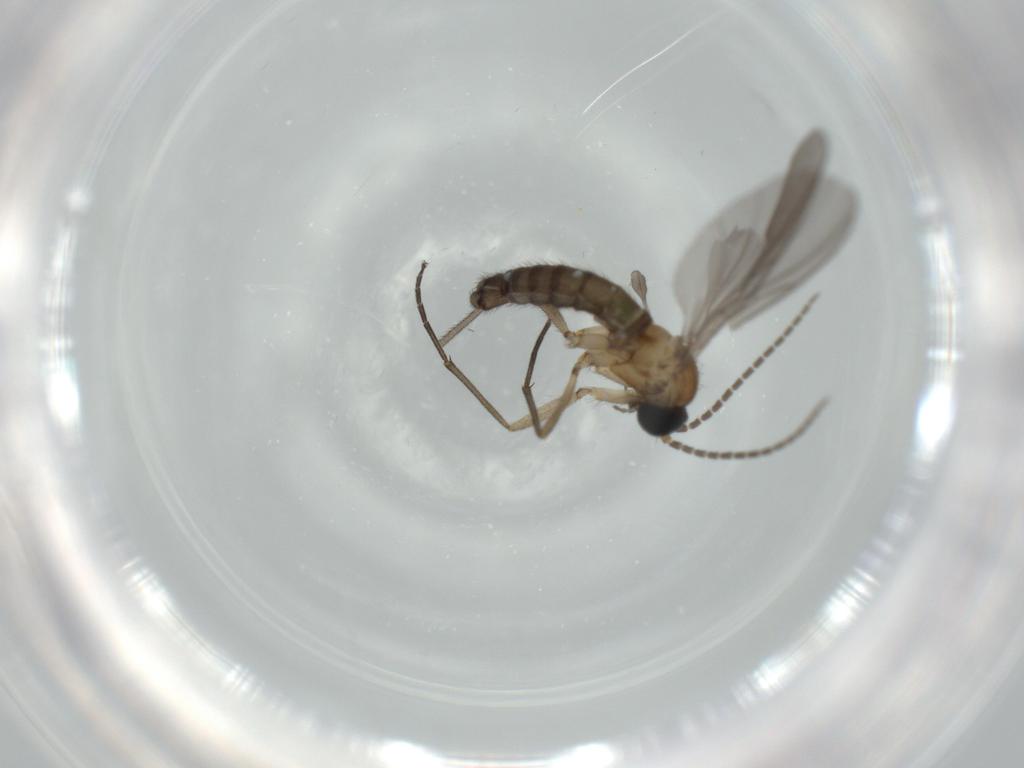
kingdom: Animalia
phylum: Arthropoda
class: Insecta
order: Diptera
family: Sciaridae
